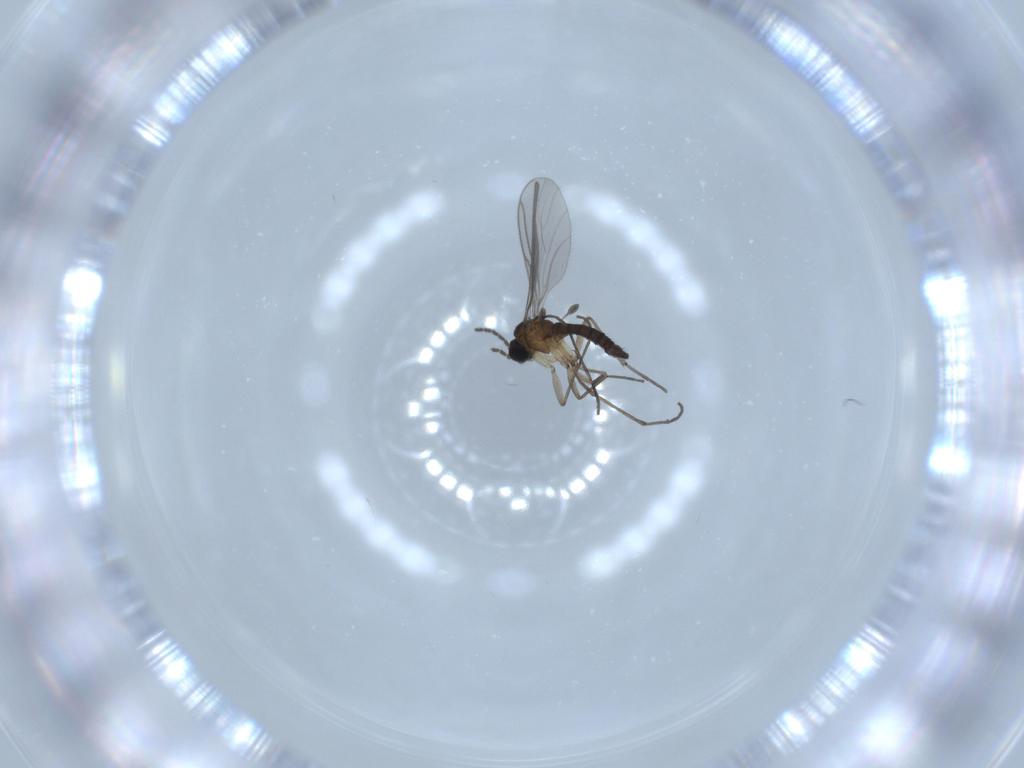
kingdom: Animalia
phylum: Arthropoda
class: Insecta
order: Diptera
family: Sciaridae
